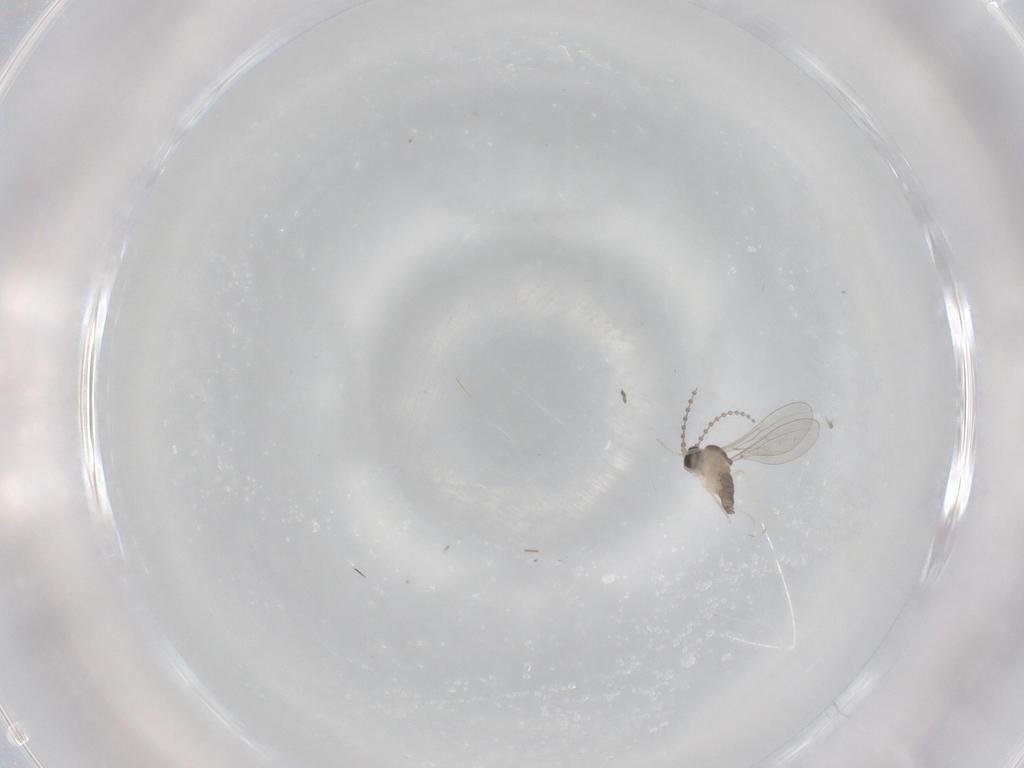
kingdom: Animalia
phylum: Arthropoda
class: Insecta
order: Diptera
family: Cecidomyiidae
